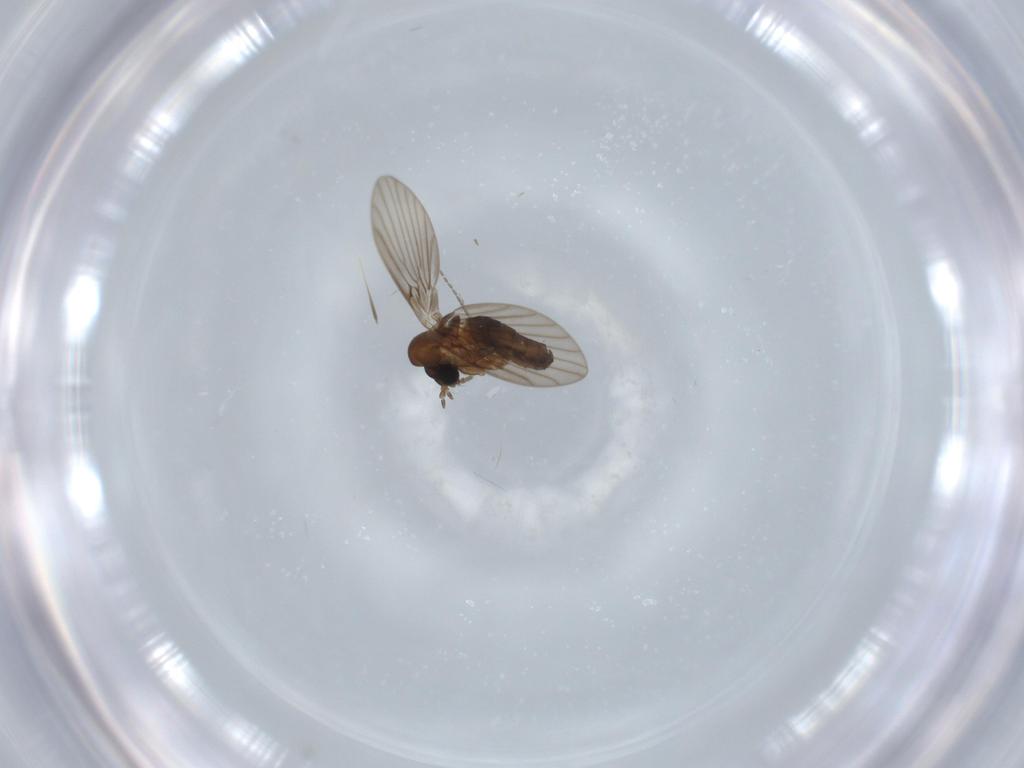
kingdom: Animalia
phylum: Arthropoda
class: Insecta
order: Diptera
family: Psychodidae
